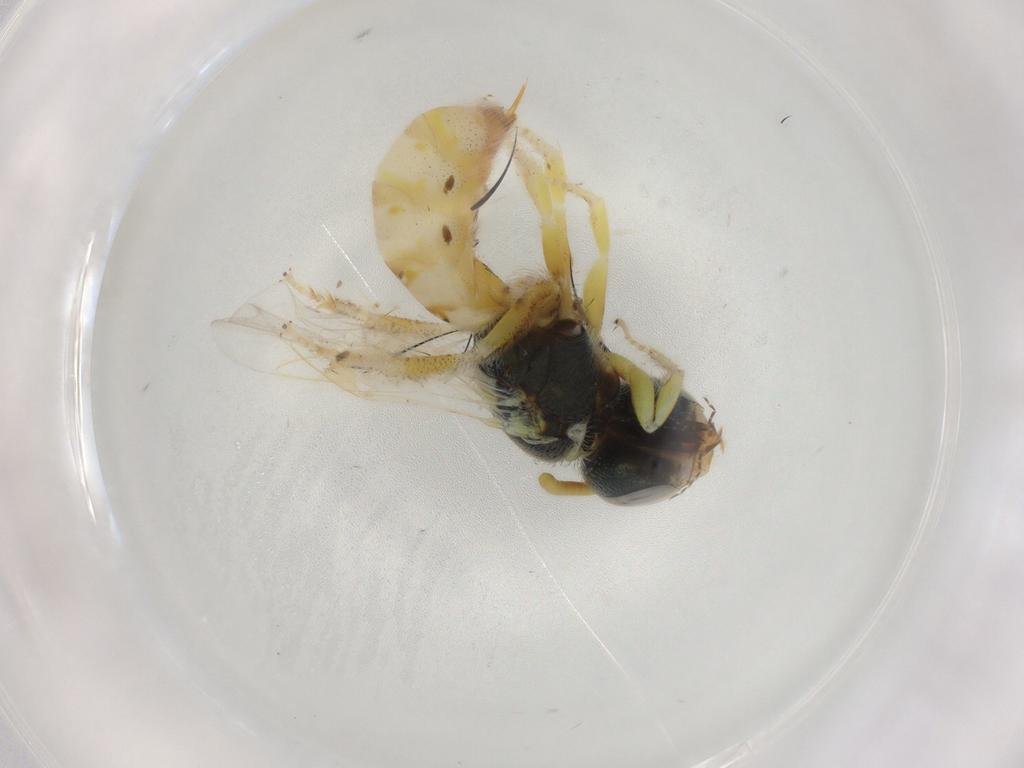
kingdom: Animalia
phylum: Arthropoda
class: Insecta
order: Hymenoptera
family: Halictidae
